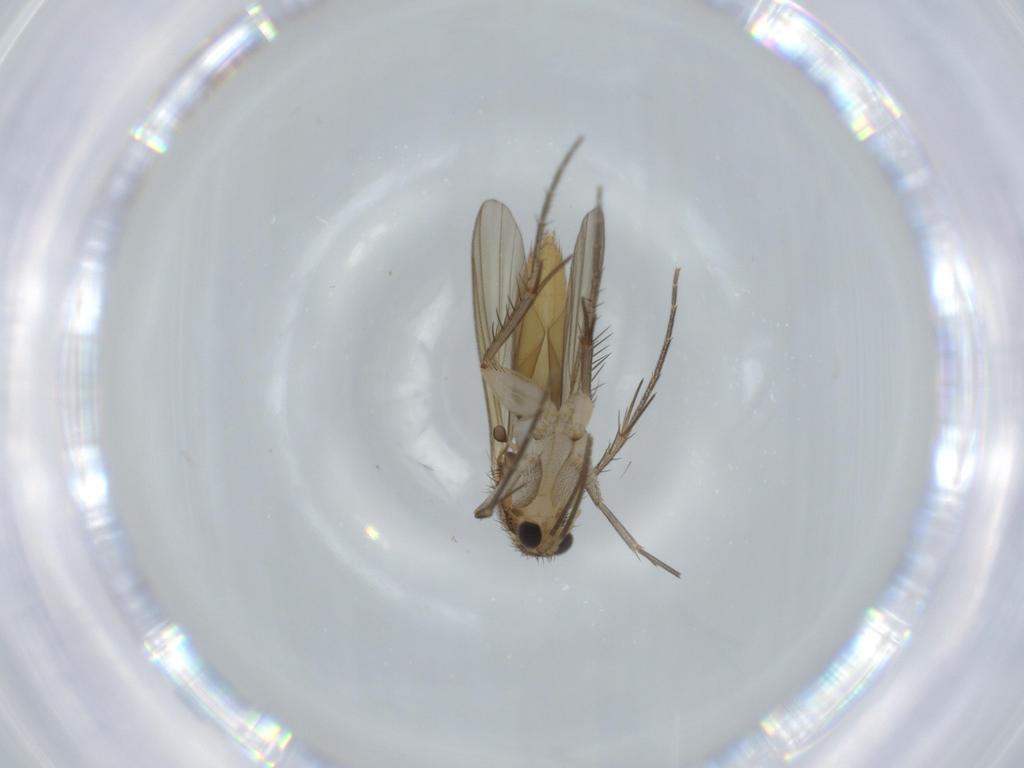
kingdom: Animalia
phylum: Arthropoda
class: Insecta
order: Diptera
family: Mycetophilidae
